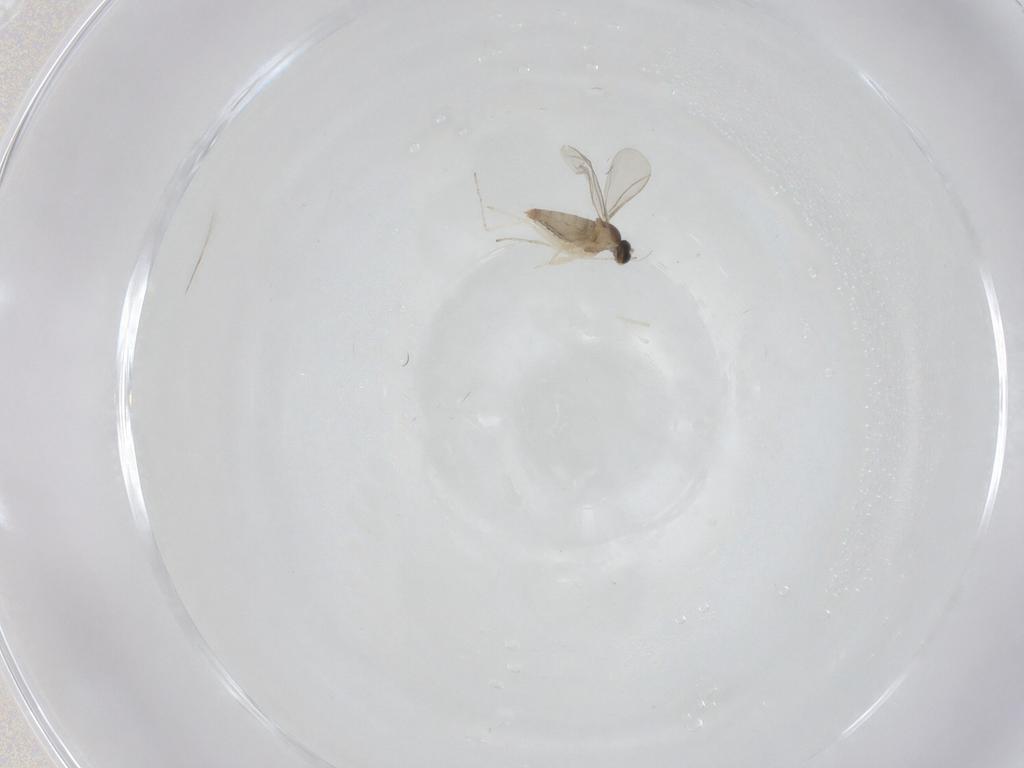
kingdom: Animalia
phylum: Arthropoda
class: Insecta
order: Diptera
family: Cecidomyiidae
